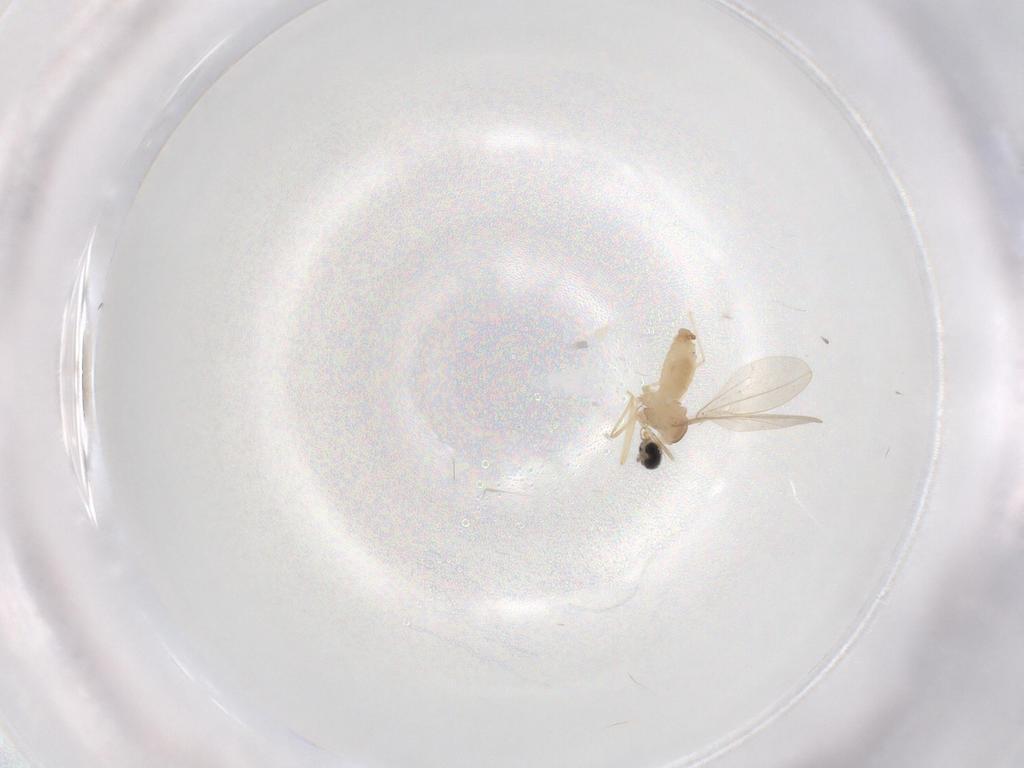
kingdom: Animalia
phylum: Arthropoda
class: Insecta
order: Diptera
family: Cecidomyiidae
